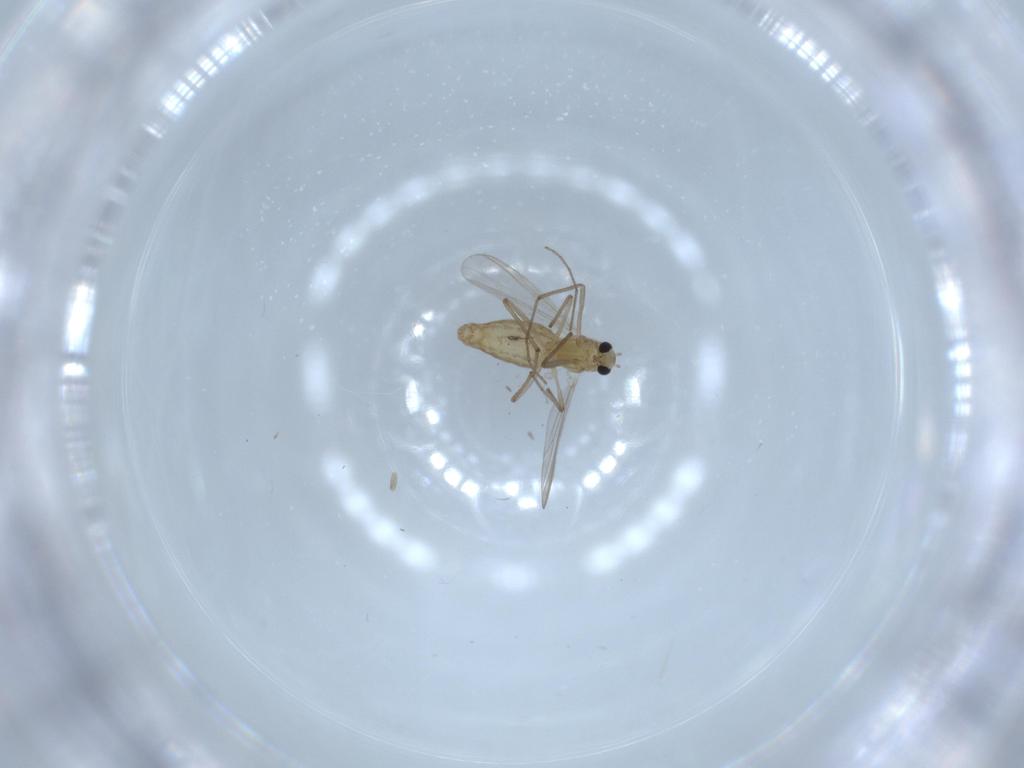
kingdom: Animalia
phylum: Arthropoda
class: Insecta
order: Diptera
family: Chironomidae
